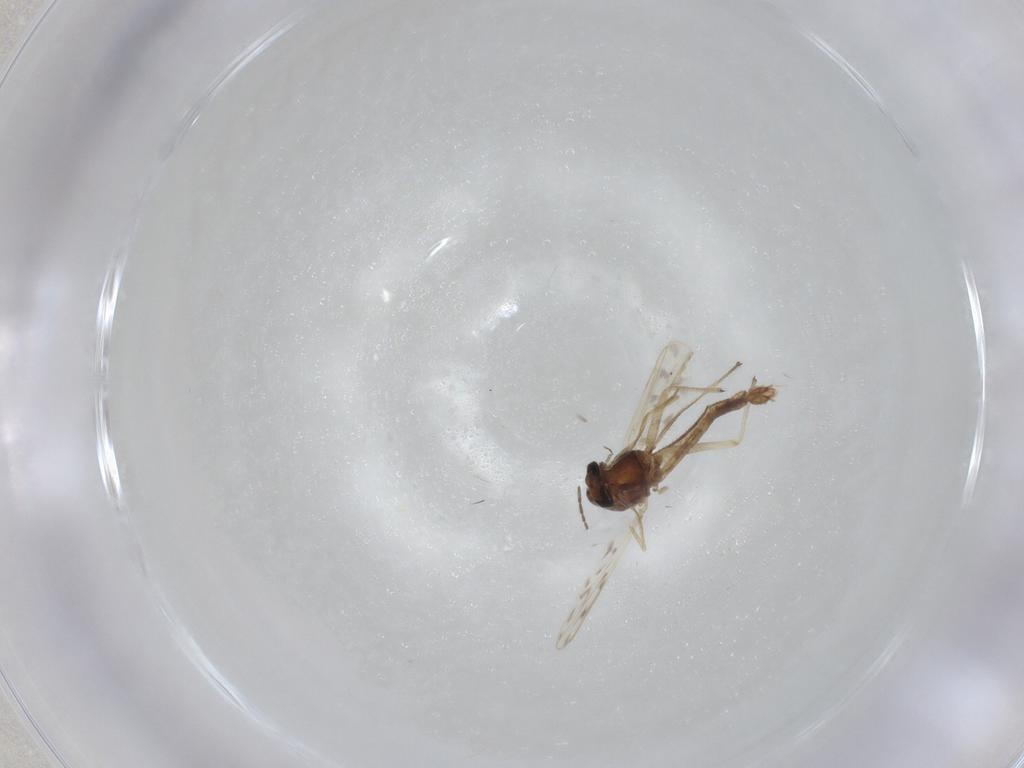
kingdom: Animalia
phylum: Arthropoda
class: Insecta
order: Diptera
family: Chironomidae
